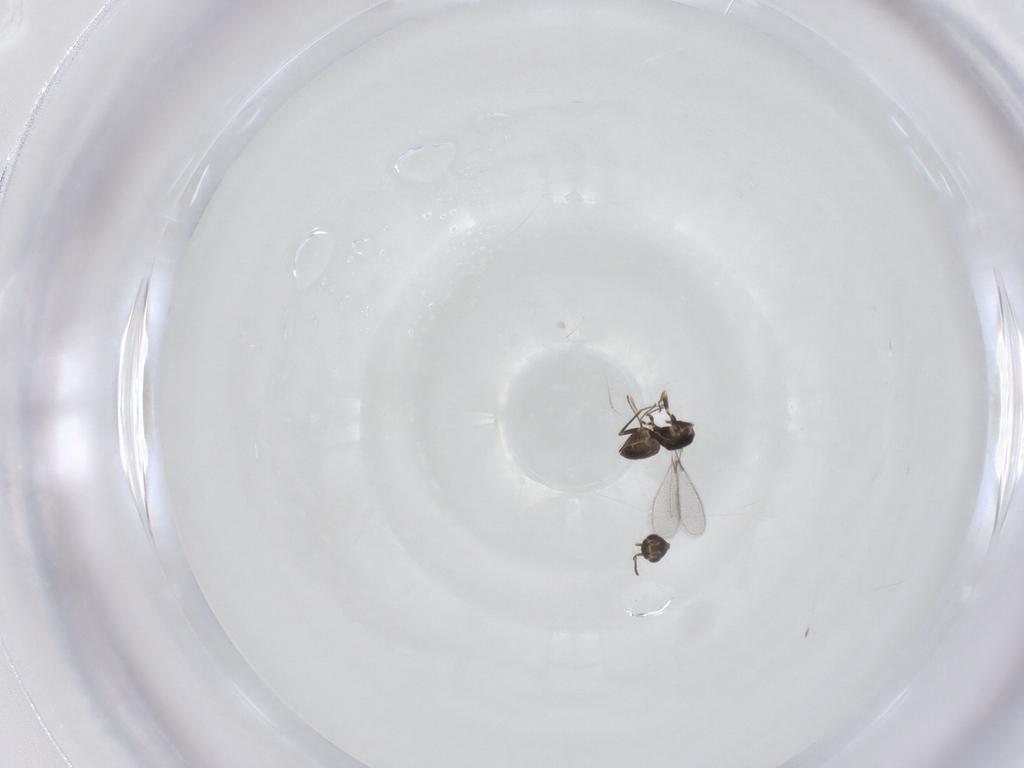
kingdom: Animalia
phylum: Arthropoda
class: Insecta
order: Hymenoptera
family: Mymaridae
